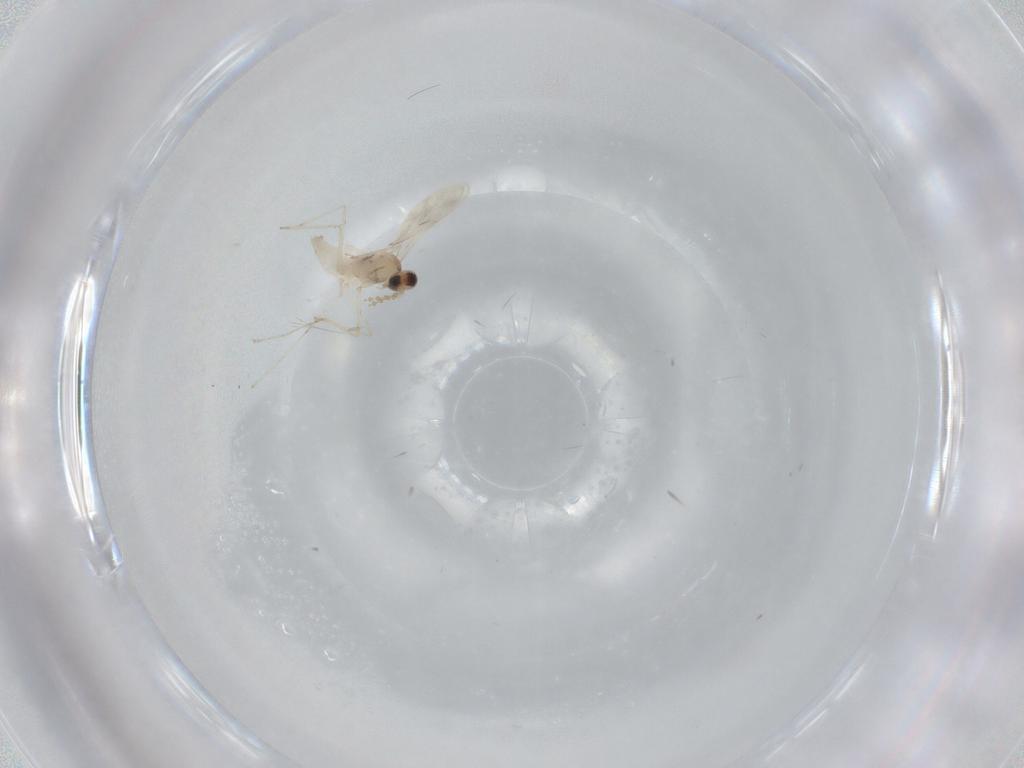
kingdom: Animalia
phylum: Arthropoda
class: Insecta
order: Diptera
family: Cecidomyiidae
